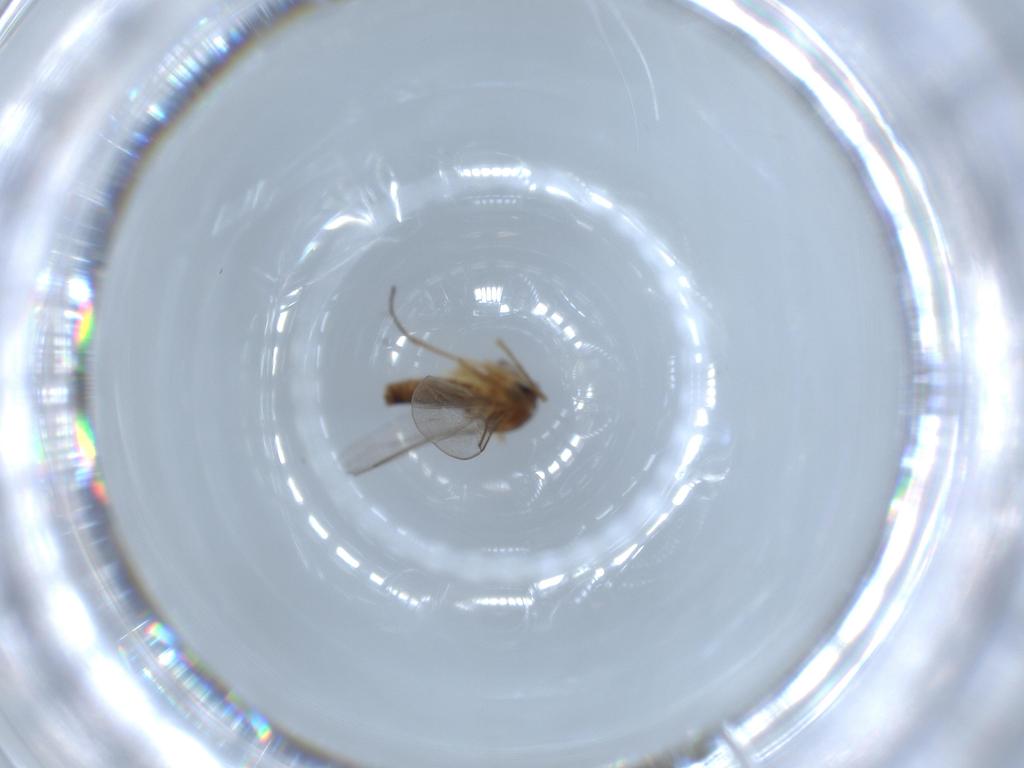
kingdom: Animalia
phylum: Arthropoda
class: Insecta
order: Diptera
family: Cecidomyiidae
